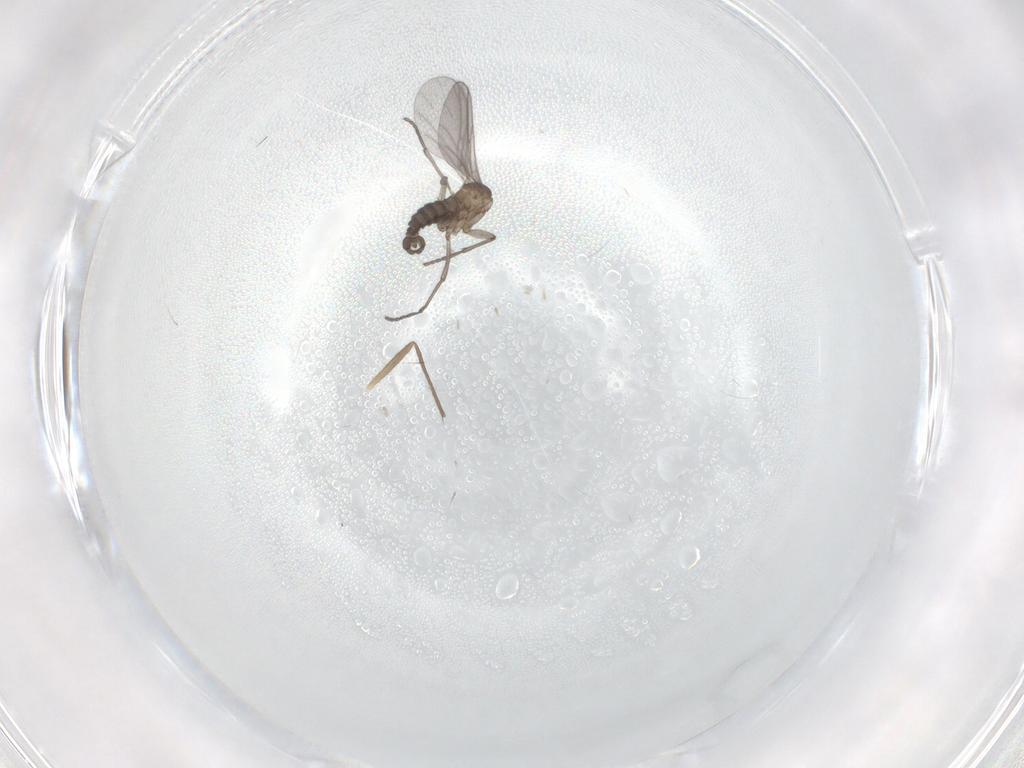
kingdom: Animalia
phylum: Arthropoda
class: Insecta
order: Diptera
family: Sciaridae
